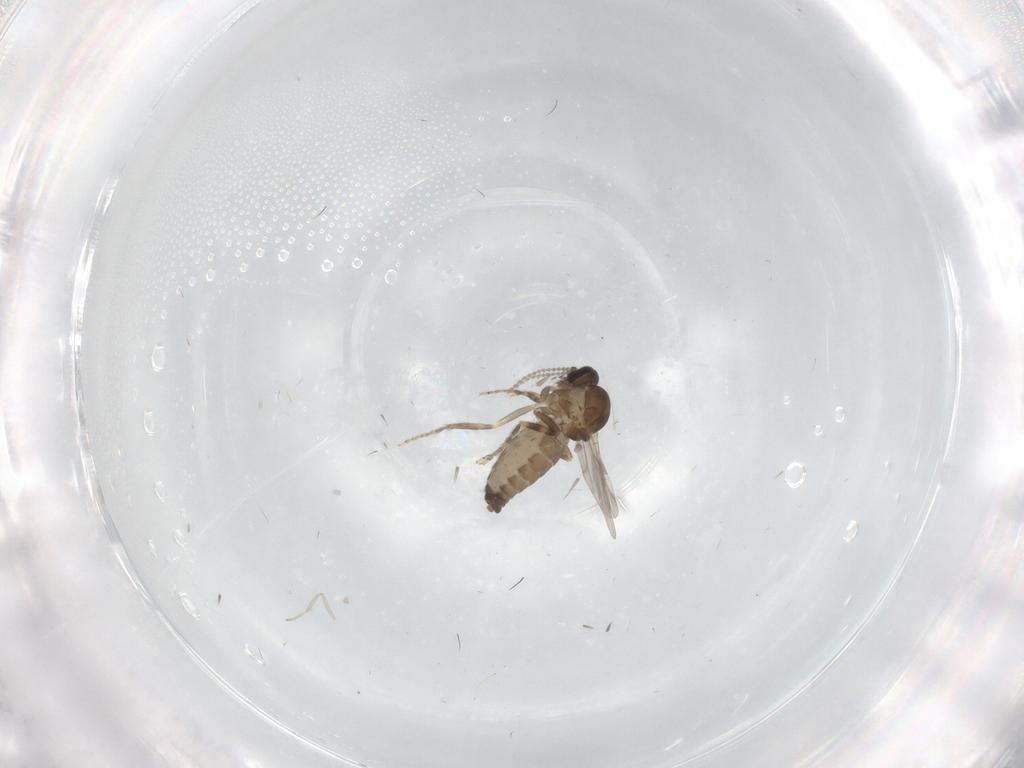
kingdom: Animalia
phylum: Arthropoda
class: Insecta
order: Diptera
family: Ceratopogonidae
